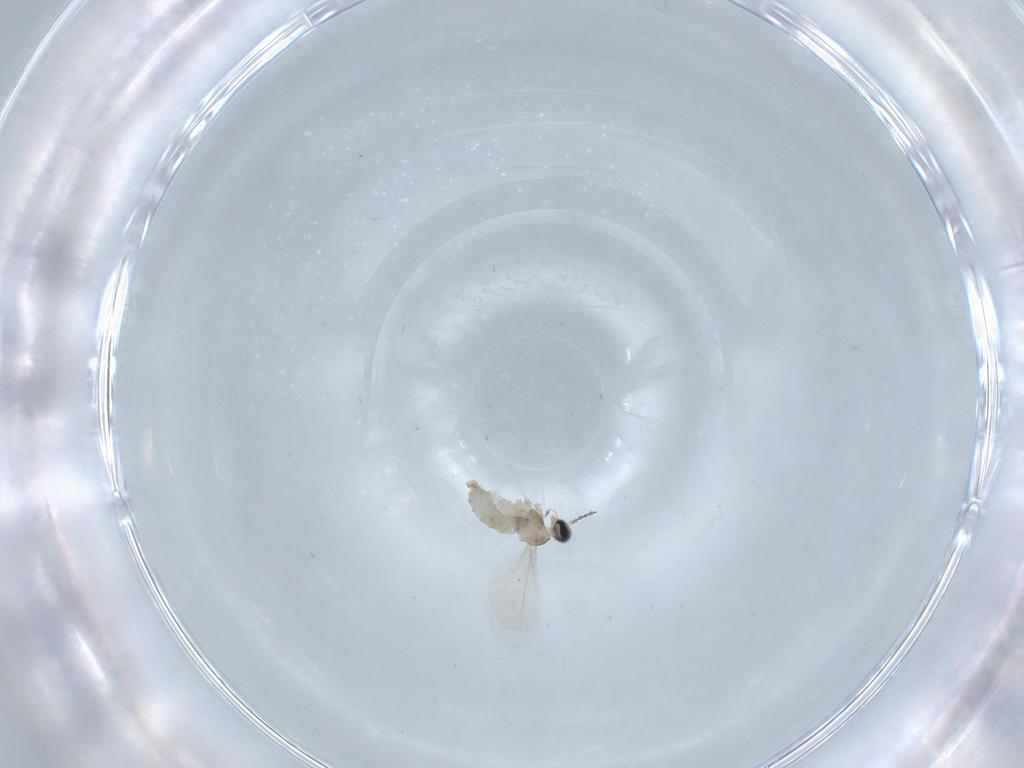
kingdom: Animalia
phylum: Arthropoda
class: Insecta
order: Diptera
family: Cecidomyiidae
